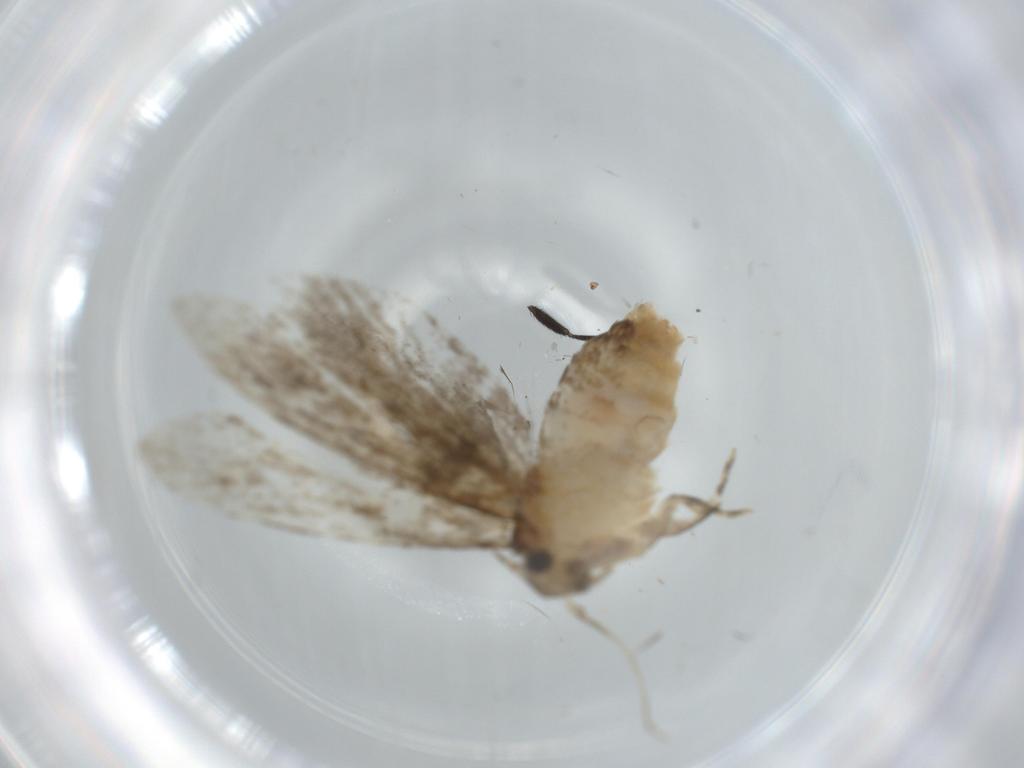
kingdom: Animalia
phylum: Arthropoda
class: Insecta
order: Lepidoptera
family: Tineidae
